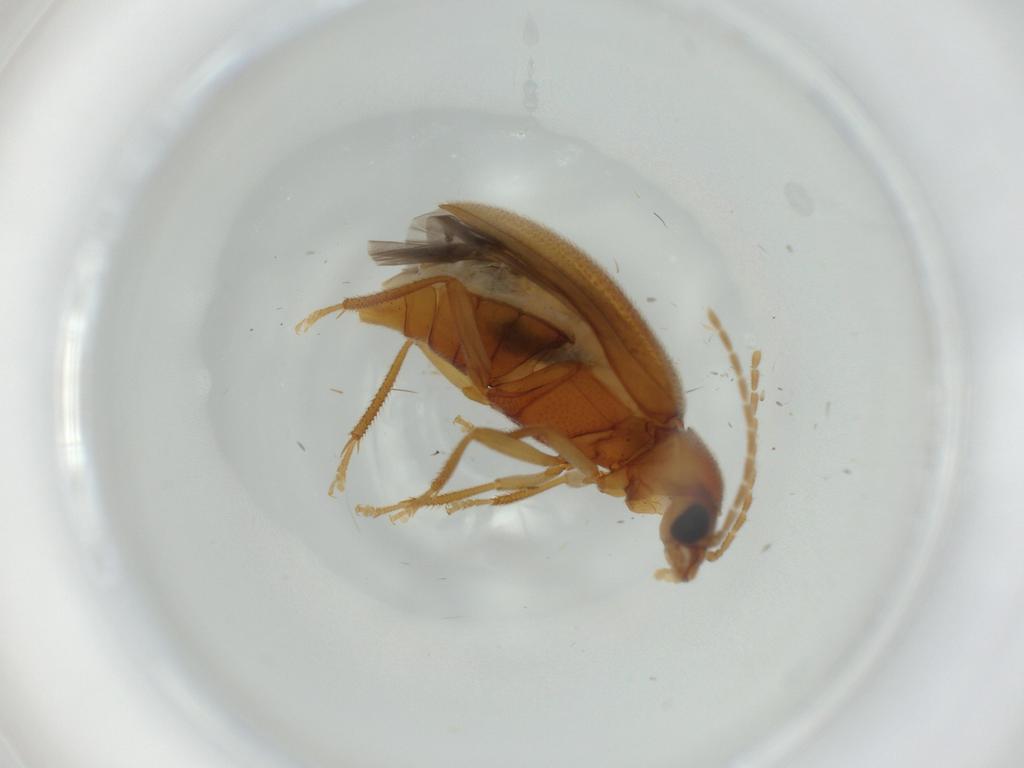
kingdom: Animalia
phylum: Arthropoda
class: Insecta
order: Coleoptera
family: Ptilodactylidae
